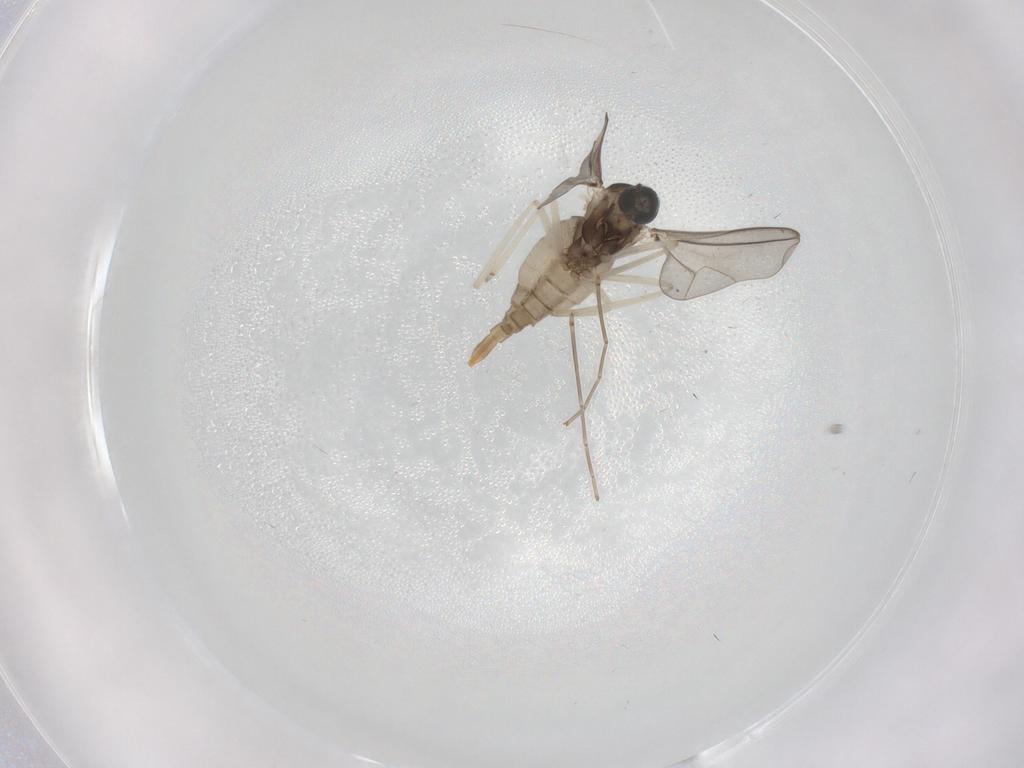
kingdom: Animalia
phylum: Arthropoda
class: Insecta
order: Diptera
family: Cecidomyiidae
